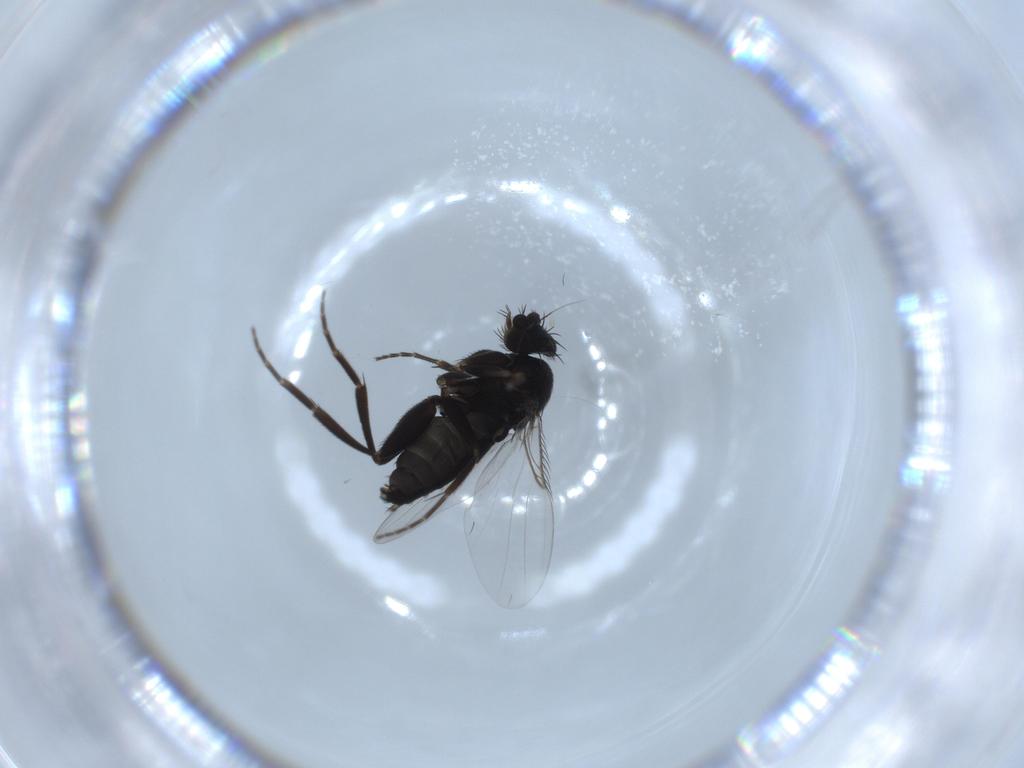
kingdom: Animalia
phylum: Arthropoda
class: Insecta
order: Diptera
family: Phoridae
